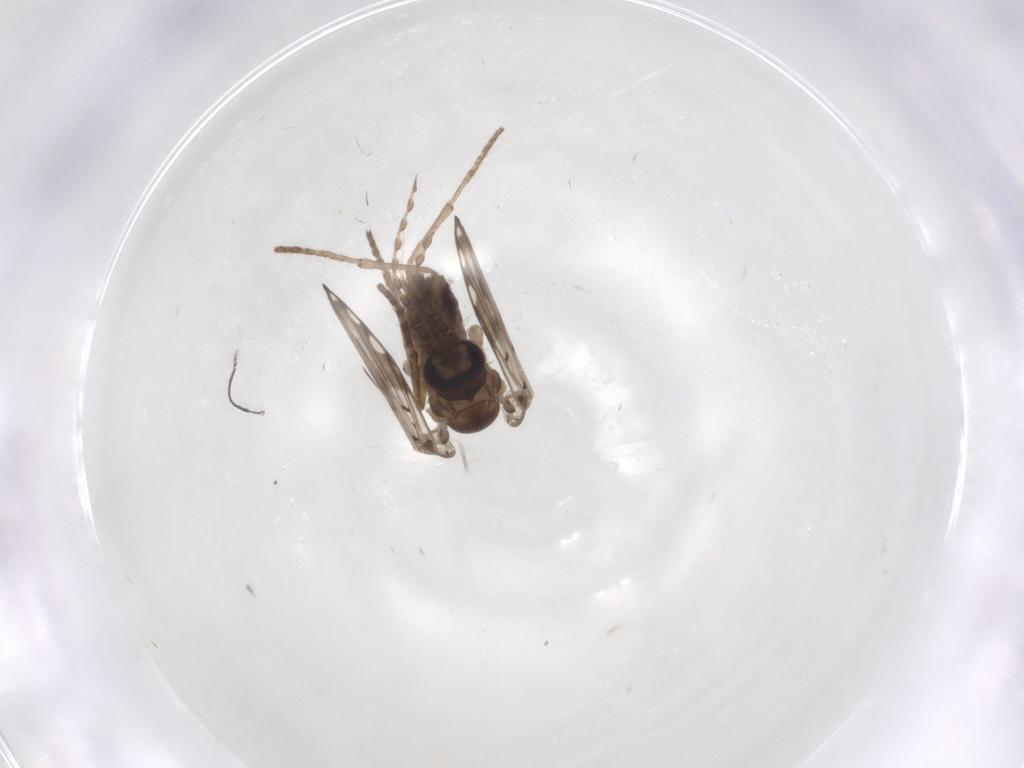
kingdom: Animalia
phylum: Arthropoda
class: Insecta
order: Diptera
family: Psychodidae
